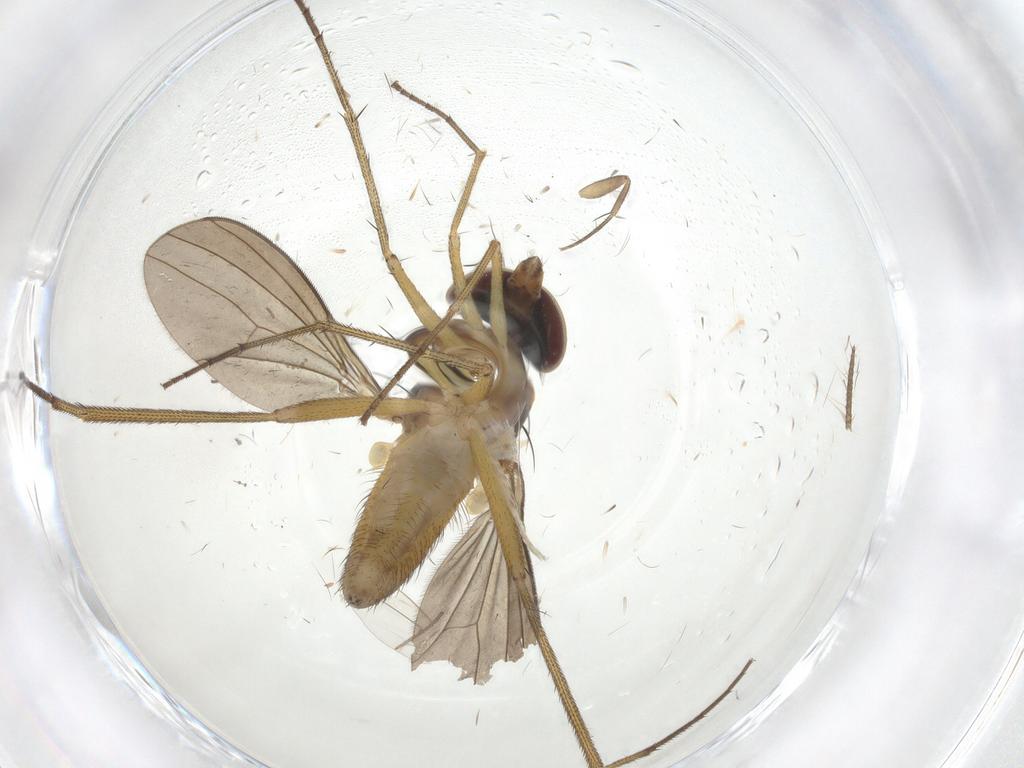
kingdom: Animalia
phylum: Arthropoda
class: Insecta
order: Diptera
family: Dolichopodidae
